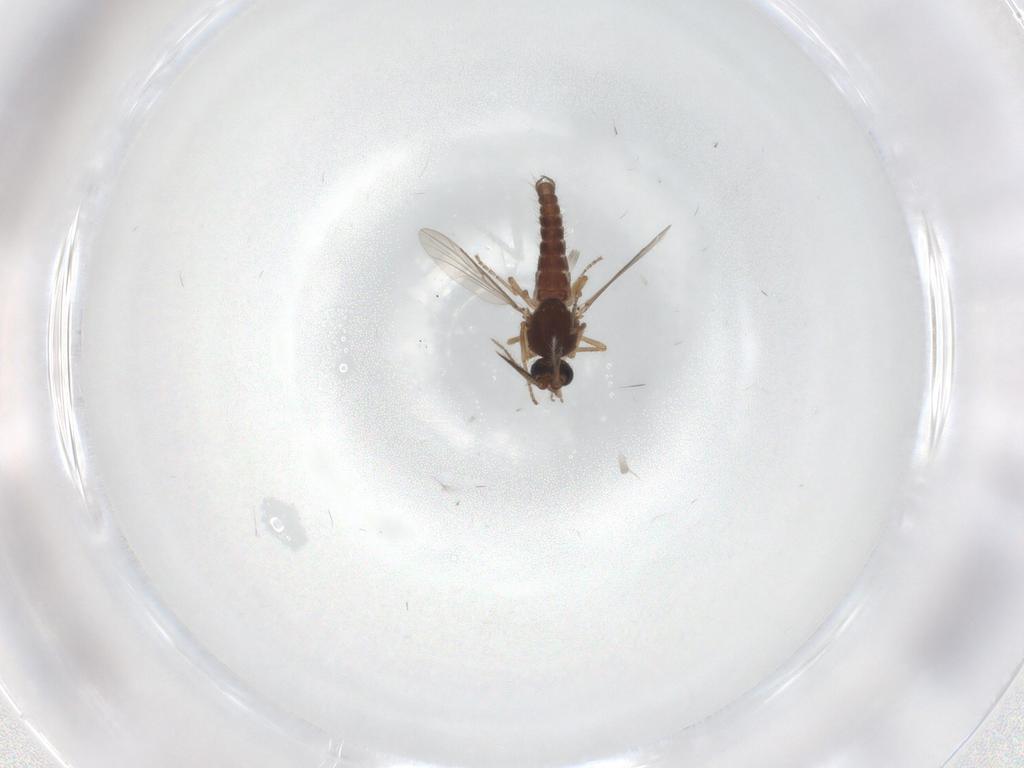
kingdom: Animalia
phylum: Arthropoda
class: Insecta
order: Diptera
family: Ceratopogonidae
